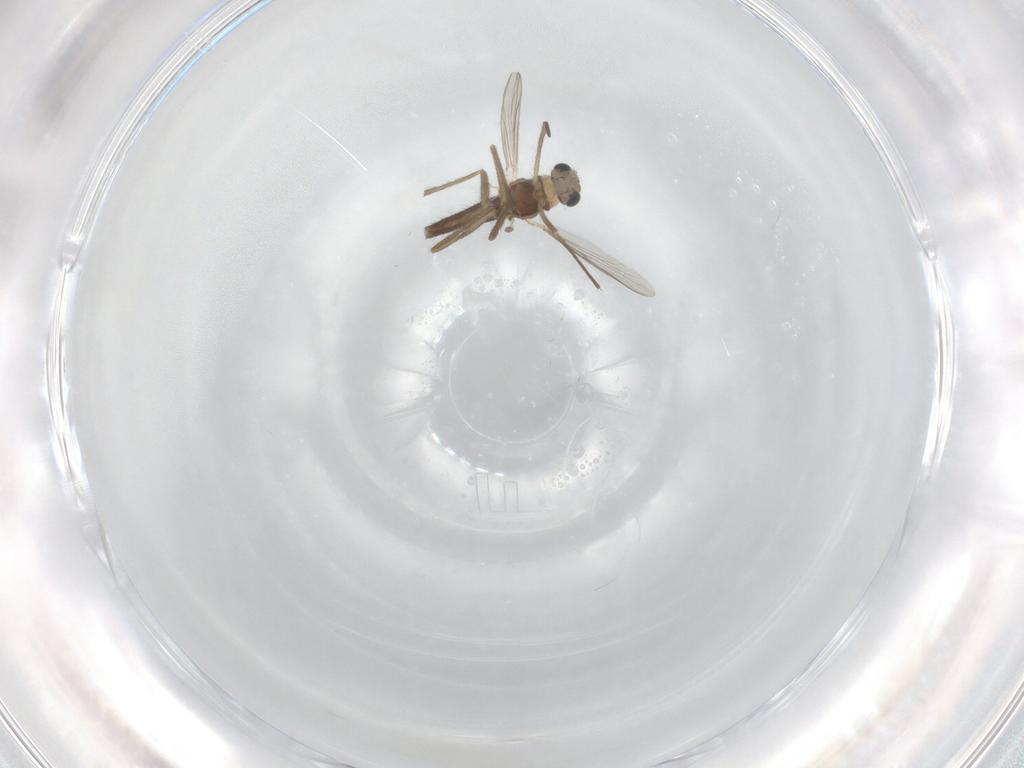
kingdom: Animalia
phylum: Arthropoda
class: Insecta
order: Diptera
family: Chironomidae
